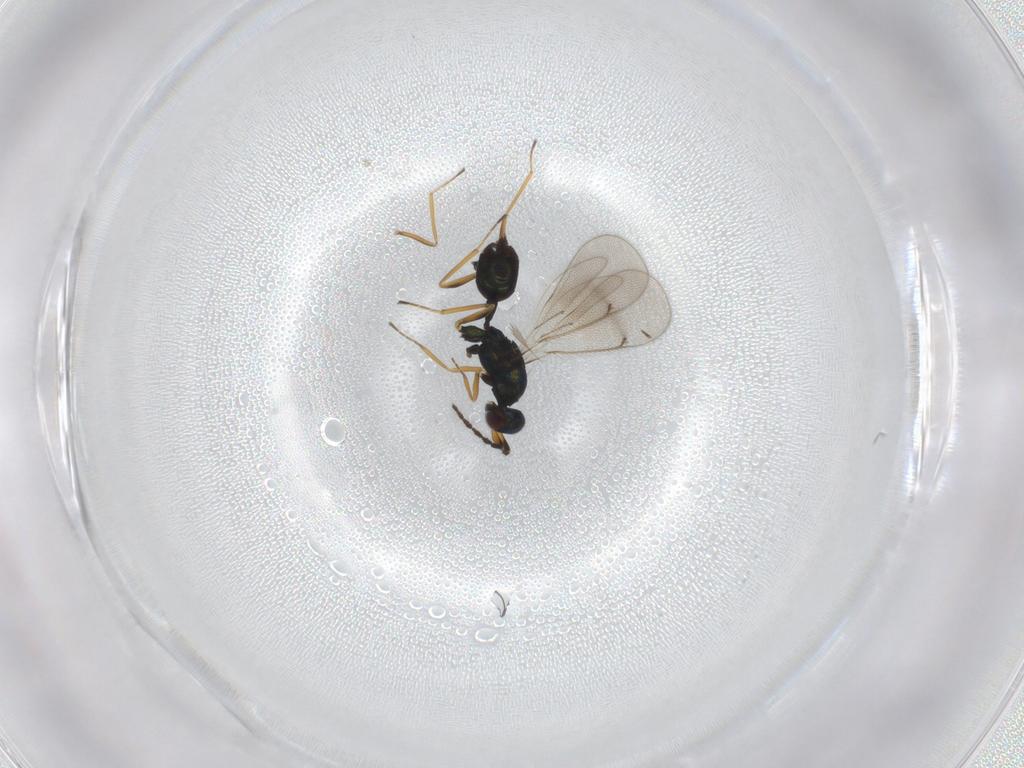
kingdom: Animalia
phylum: Arthropoda
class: Insecta
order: Hymenoptera
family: Eulophidae
